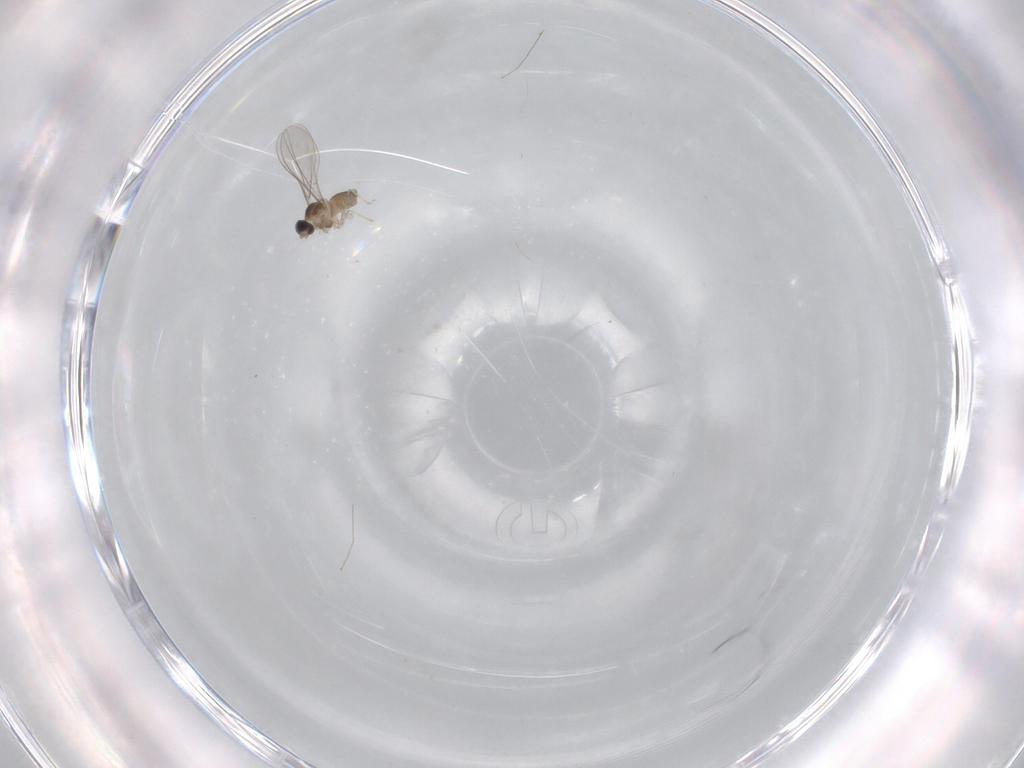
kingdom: Animalia
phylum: Arthropoda
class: Insecta
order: Diptera
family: Cecidomyiidae
